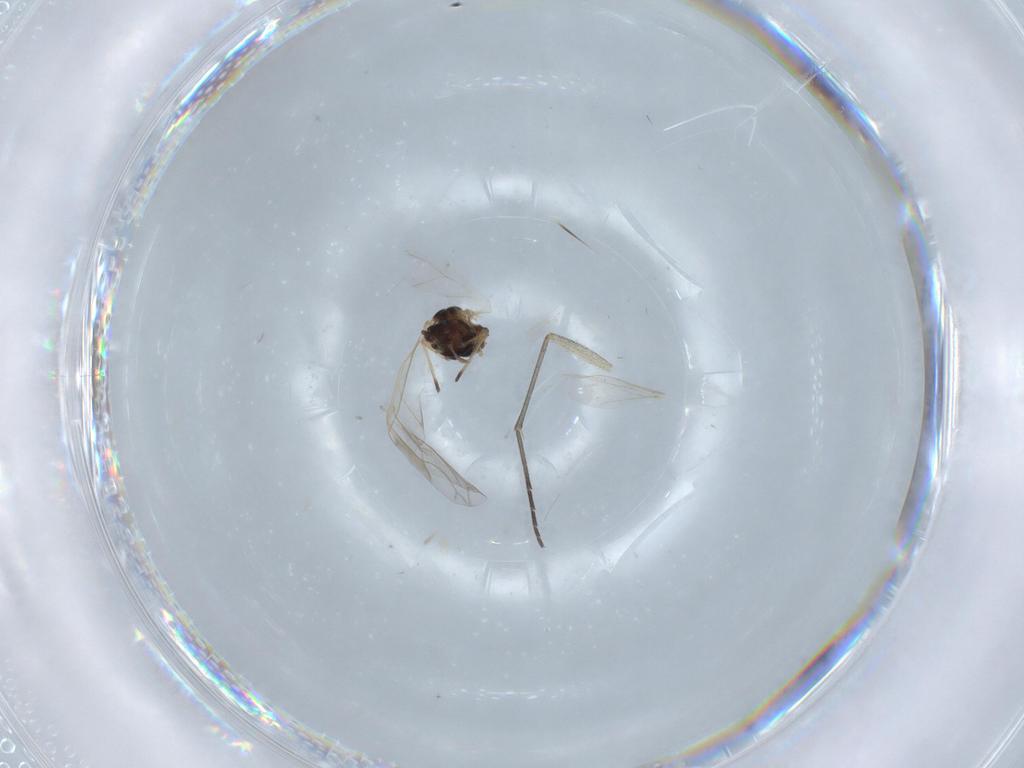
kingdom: Animalia
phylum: Arthropoda
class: Insecta
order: Hemiptera
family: Aphididae
